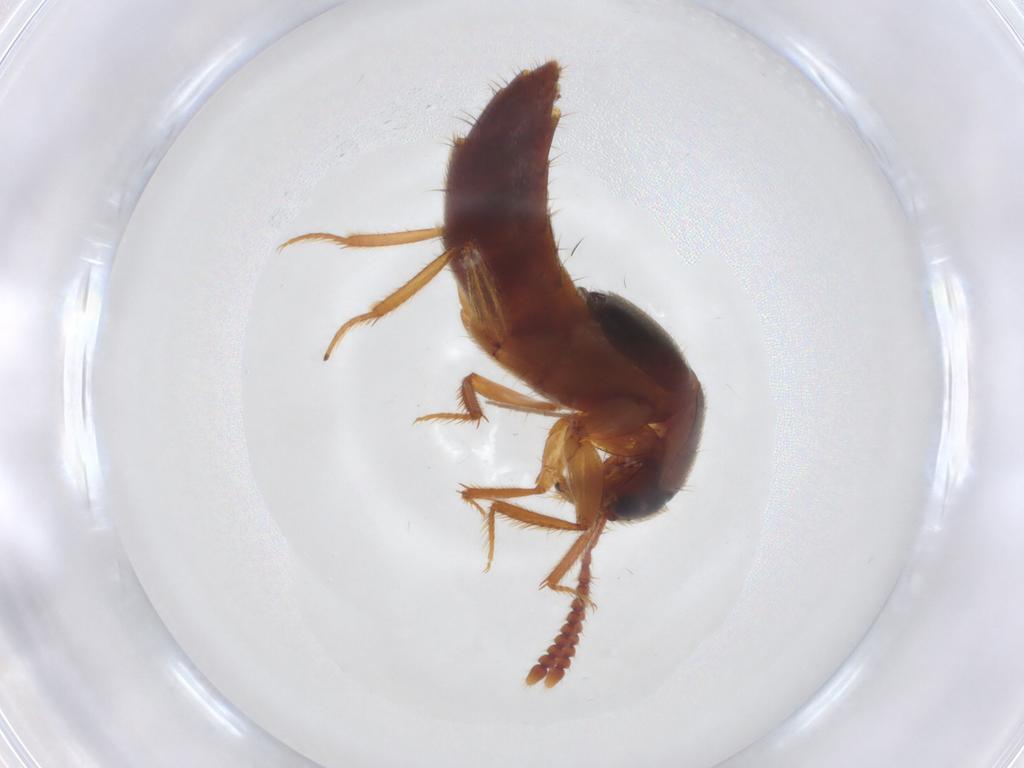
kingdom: Animalia
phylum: Arthropoda
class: Insecta
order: Coleoptera
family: Staphylinidae
